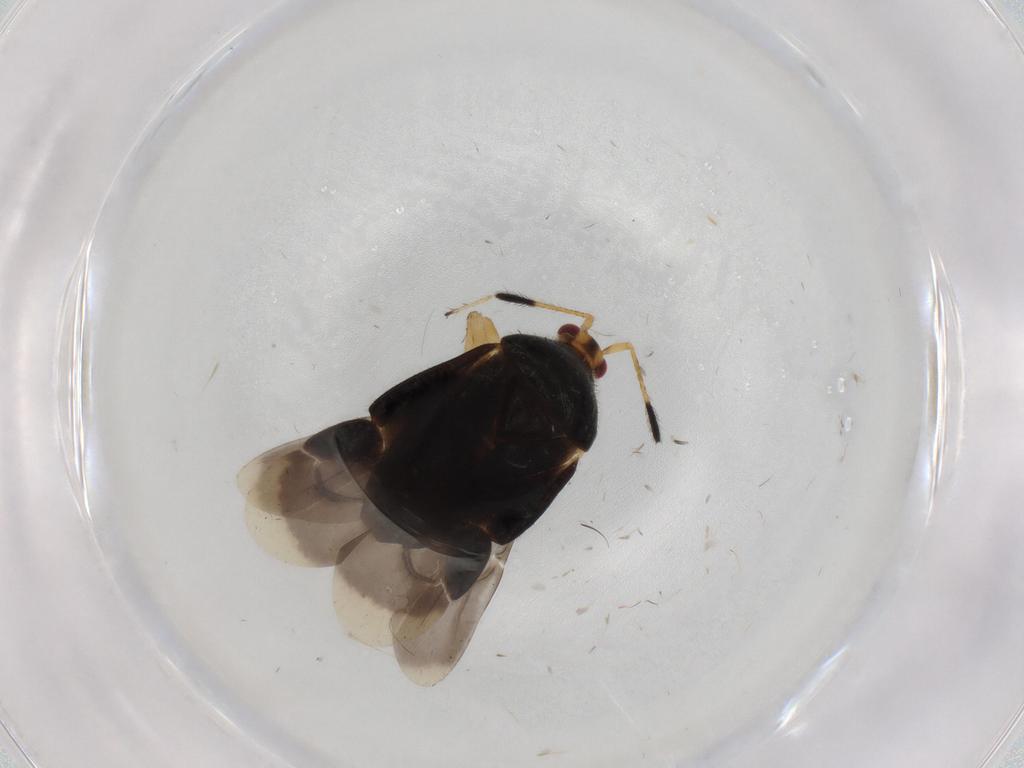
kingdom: Animalia
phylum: Arthropoda
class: Insecta
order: Hemiptera
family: Miridae
